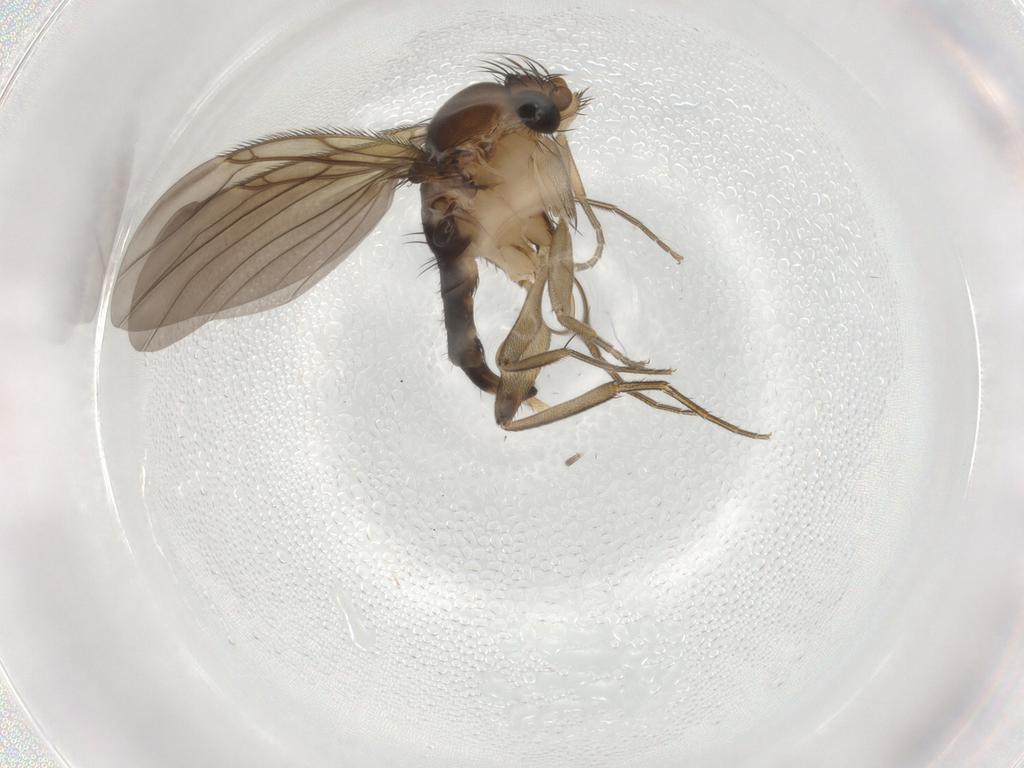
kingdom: Animalia
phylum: Arthropoda
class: Insecta
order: Diptera
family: Phoridae
